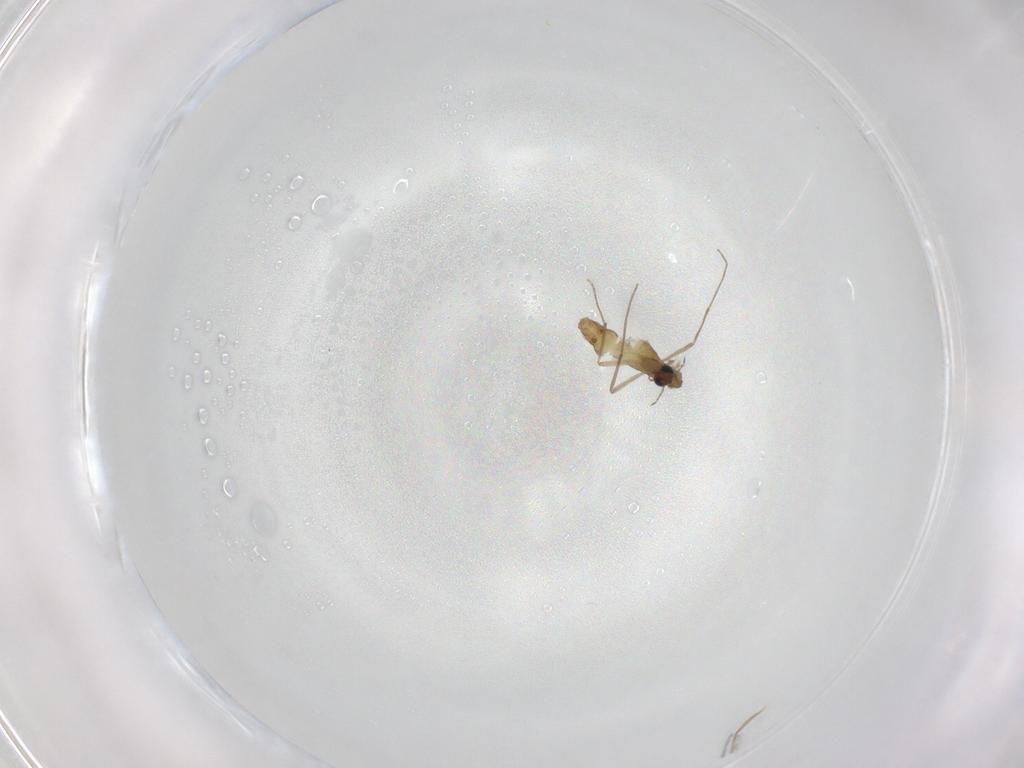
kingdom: Animalia
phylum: Arthropoda
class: Insecta
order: Diptera
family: Chironomidae
